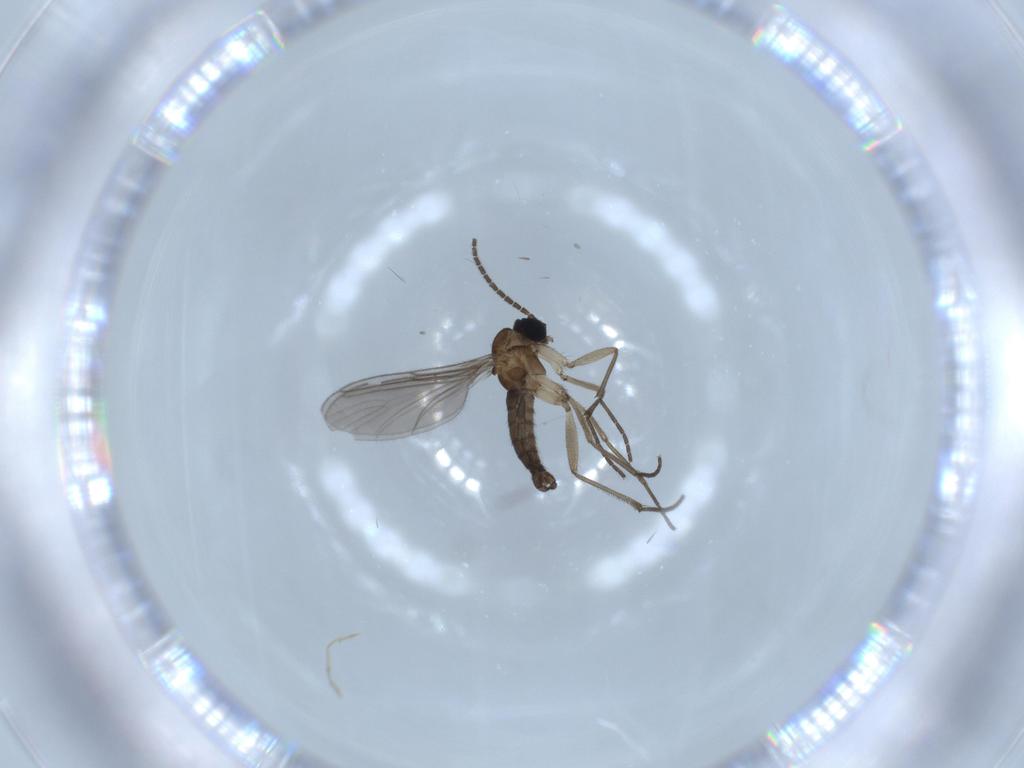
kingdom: Animalia
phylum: Arthropoda
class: Insecta
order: Diptera
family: Sciaridae
